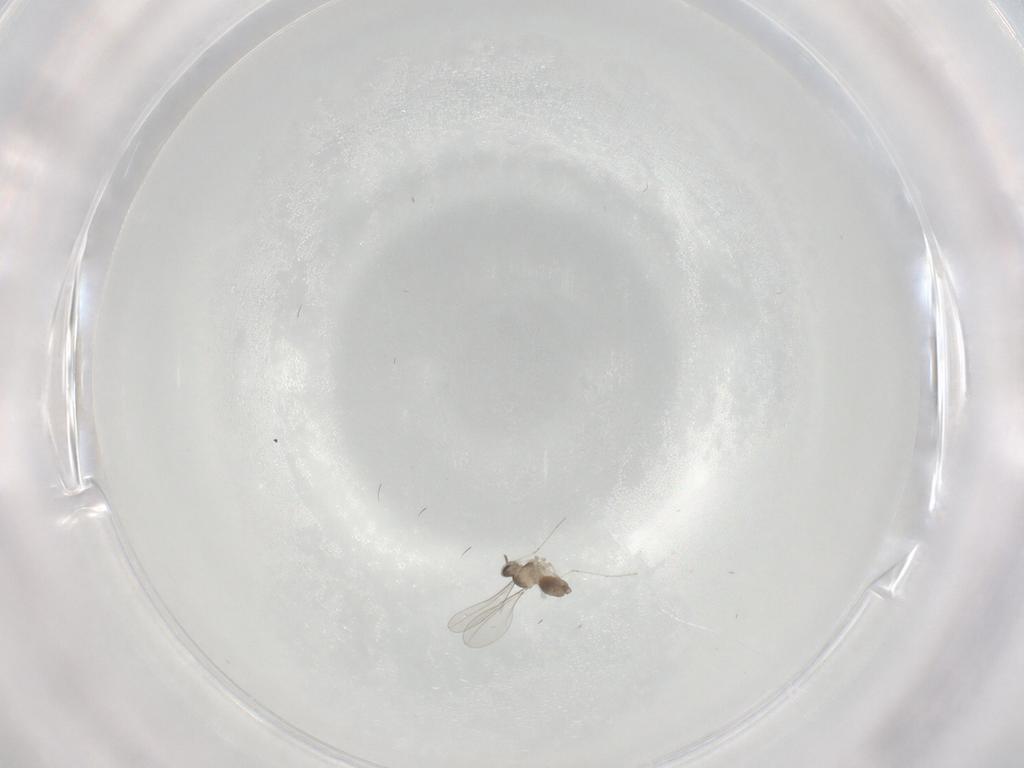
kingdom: Animalia
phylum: Arthropoda
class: Insecta
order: Diptera
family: Cecidomyiidae
